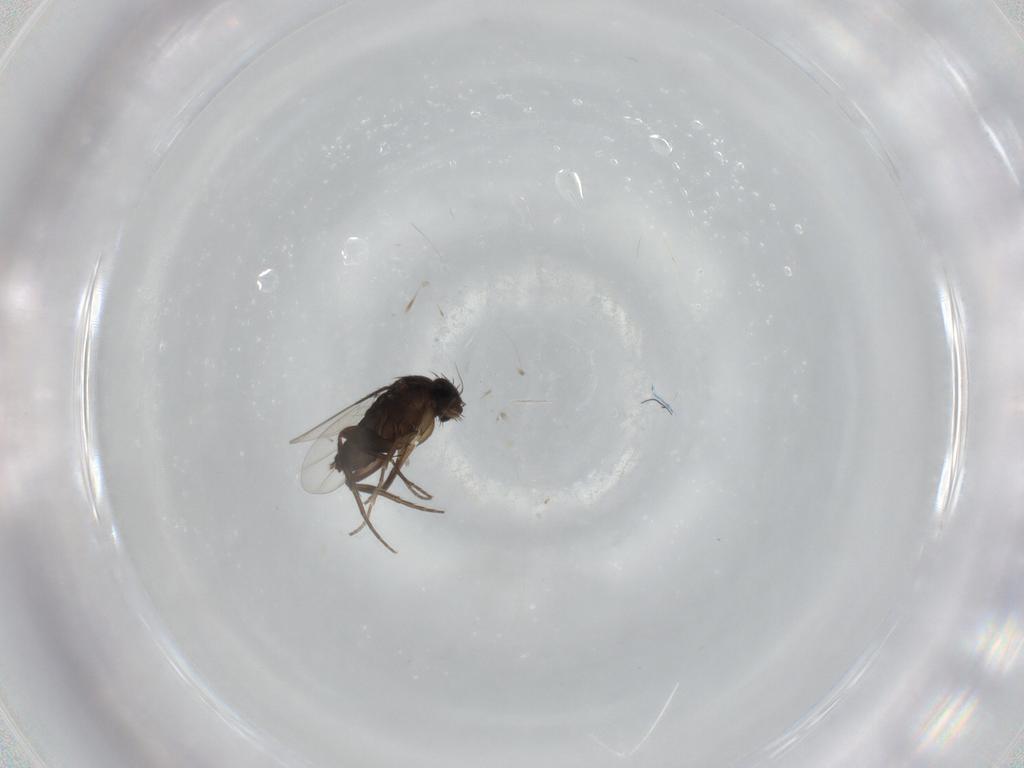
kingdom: Animalia
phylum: Arthropoda
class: Insecta
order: Diptera
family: Phoridae
